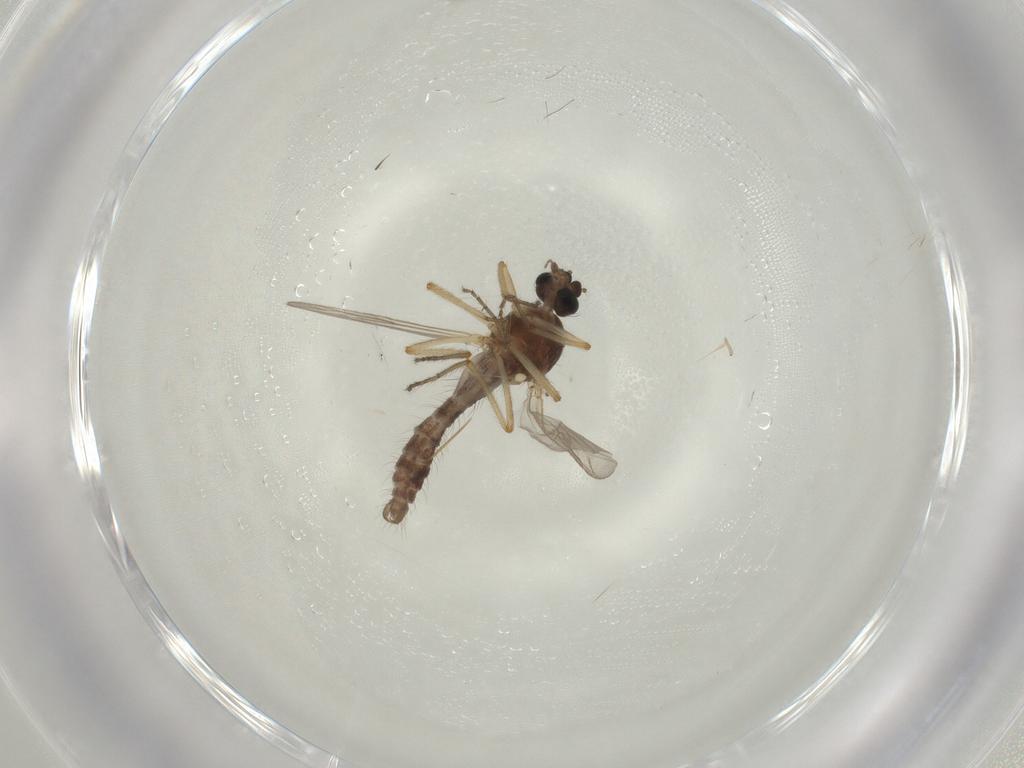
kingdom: Animalia
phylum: Arthropoda
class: Insecta
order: Diptera
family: Ceratopogonidae
